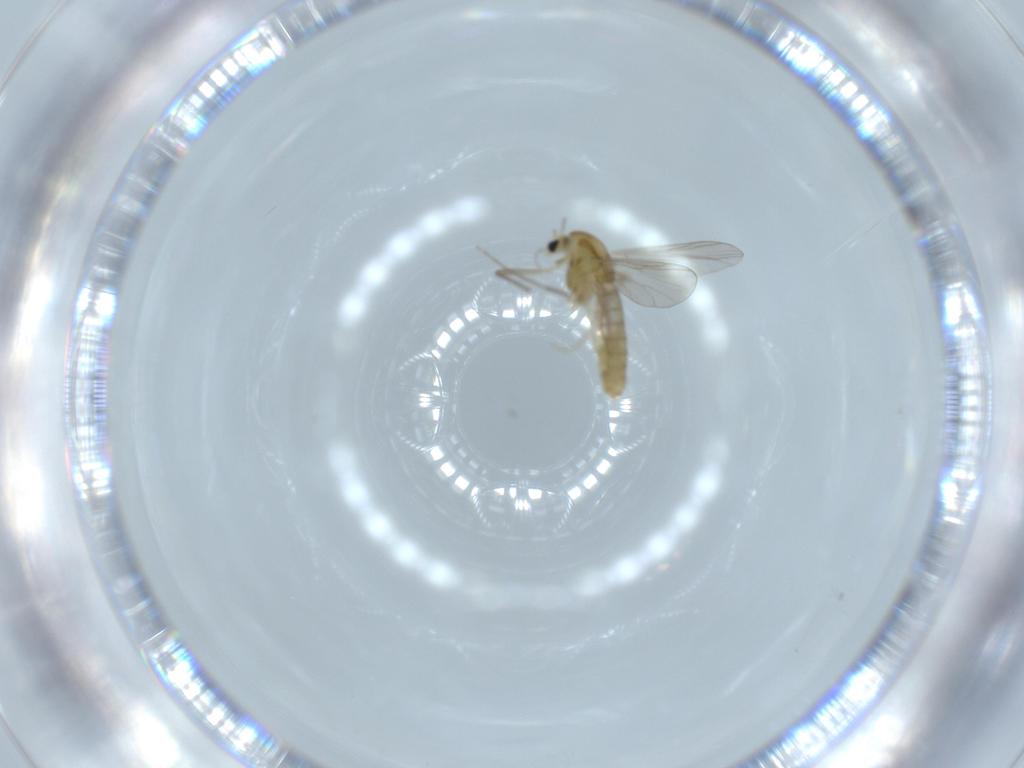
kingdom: Animalia
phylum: Arthropoda
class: Insecta
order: Diptera
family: Chironomidae
